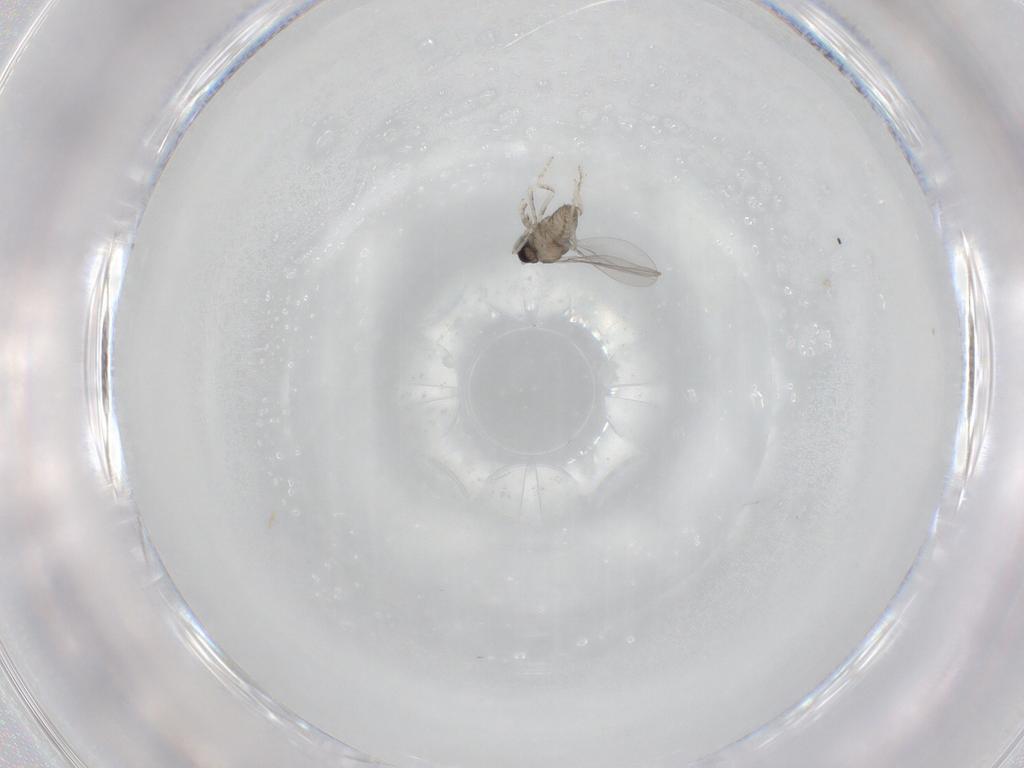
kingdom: Animalia
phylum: Arthropoda
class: Insecta
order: Diptera
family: Cecidomyiidae
